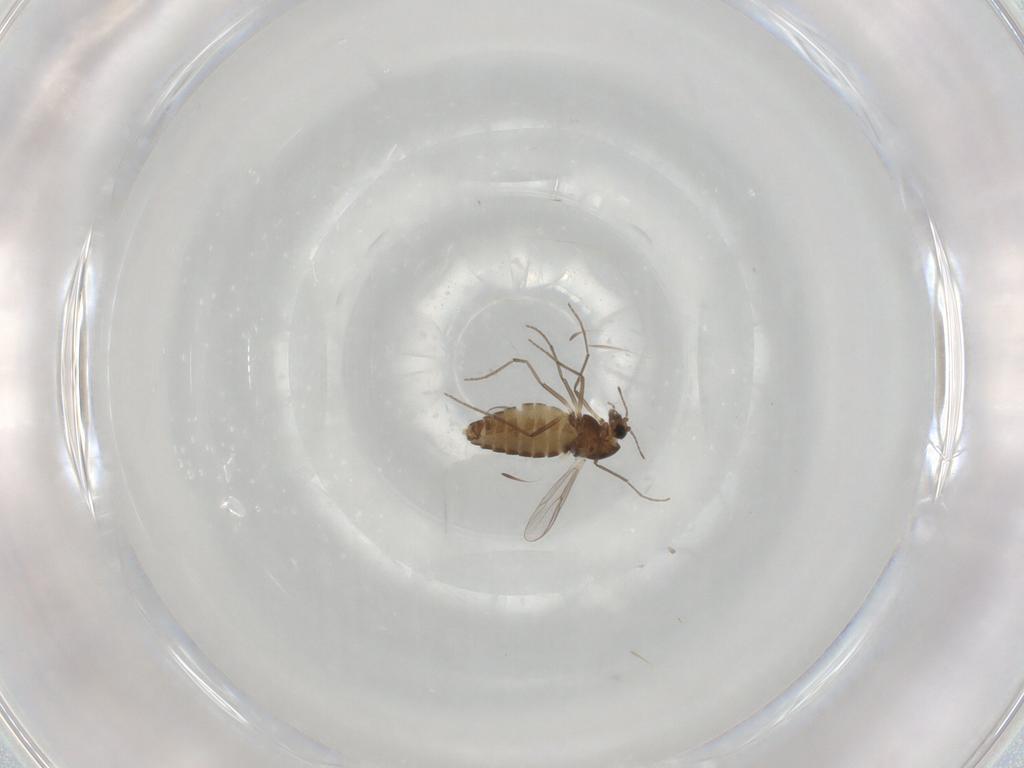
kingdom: Animalia
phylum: Arthropoda
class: Insecta
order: Diptera
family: Chironomidae
